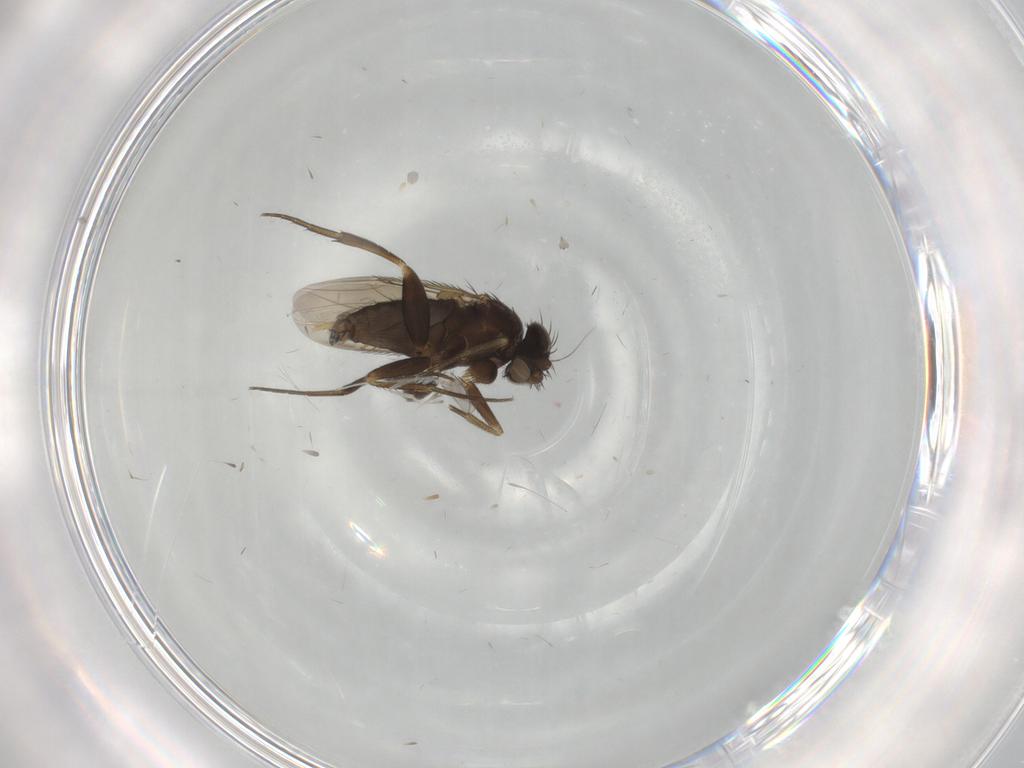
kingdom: Animalia
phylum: Arthropoda
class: Insecta
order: Diptera
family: Phoridae
